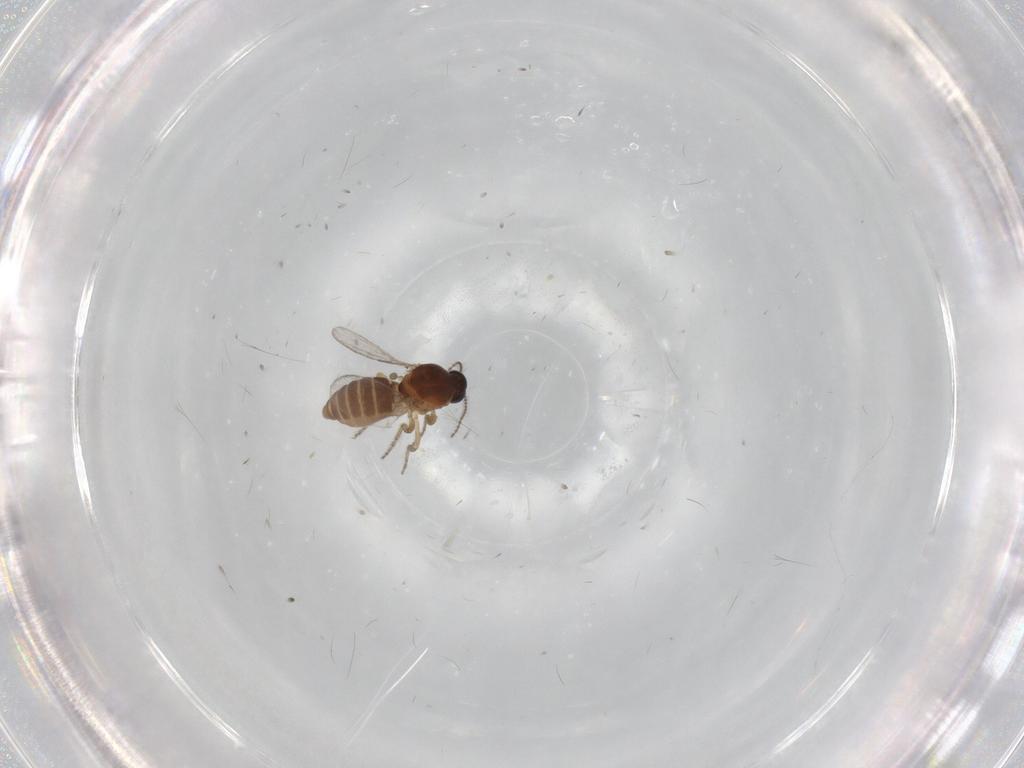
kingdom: Animalia
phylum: Arthropoda
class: Insecta
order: Diptera
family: Ceratopogonidae
